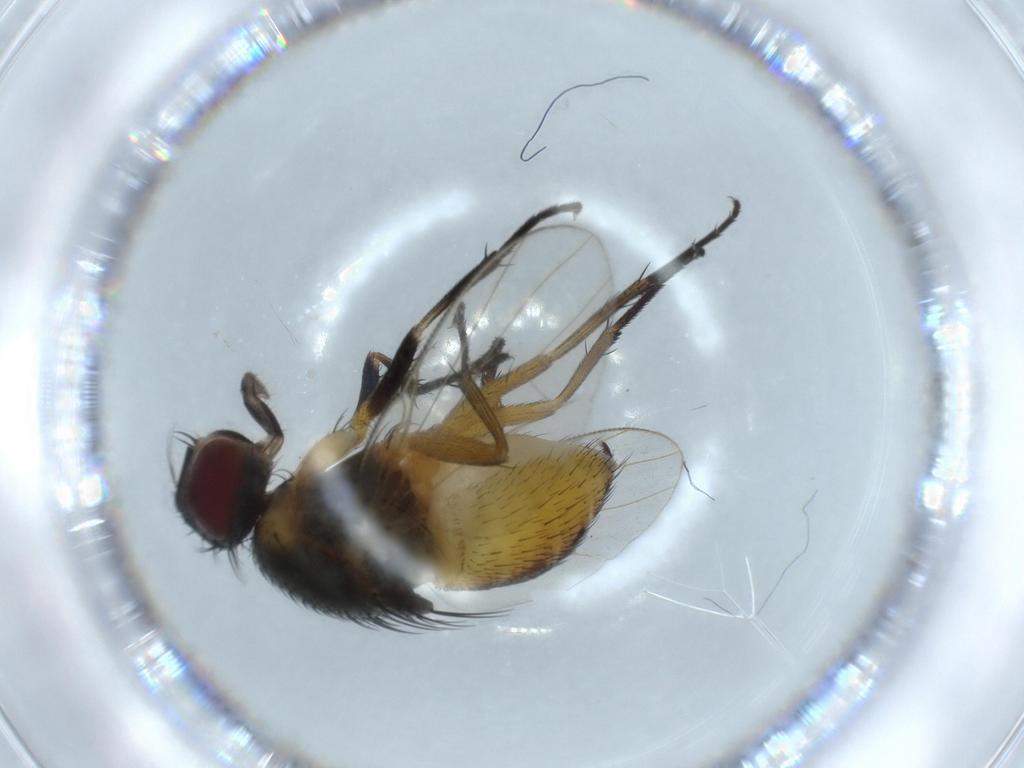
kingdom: Animalia
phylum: Arthropoda
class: Insecta
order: Diptera
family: Muscidae
